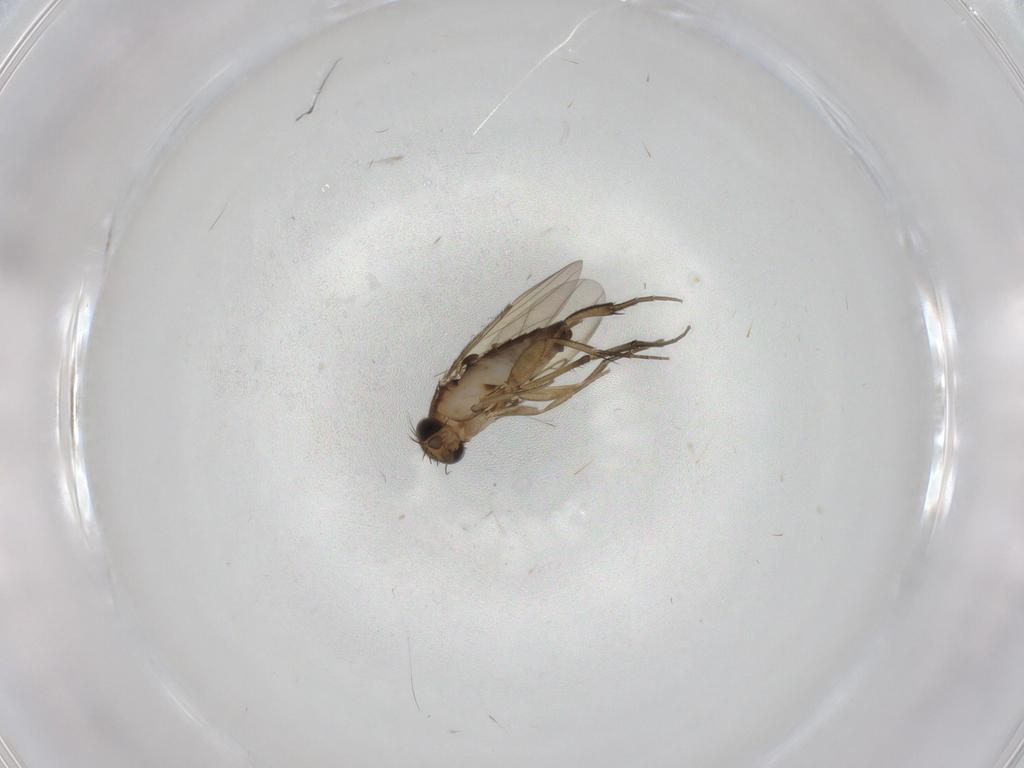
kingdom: Animalia
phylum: Arthropoda
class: Insecta
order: Diptera
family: Phoridae
